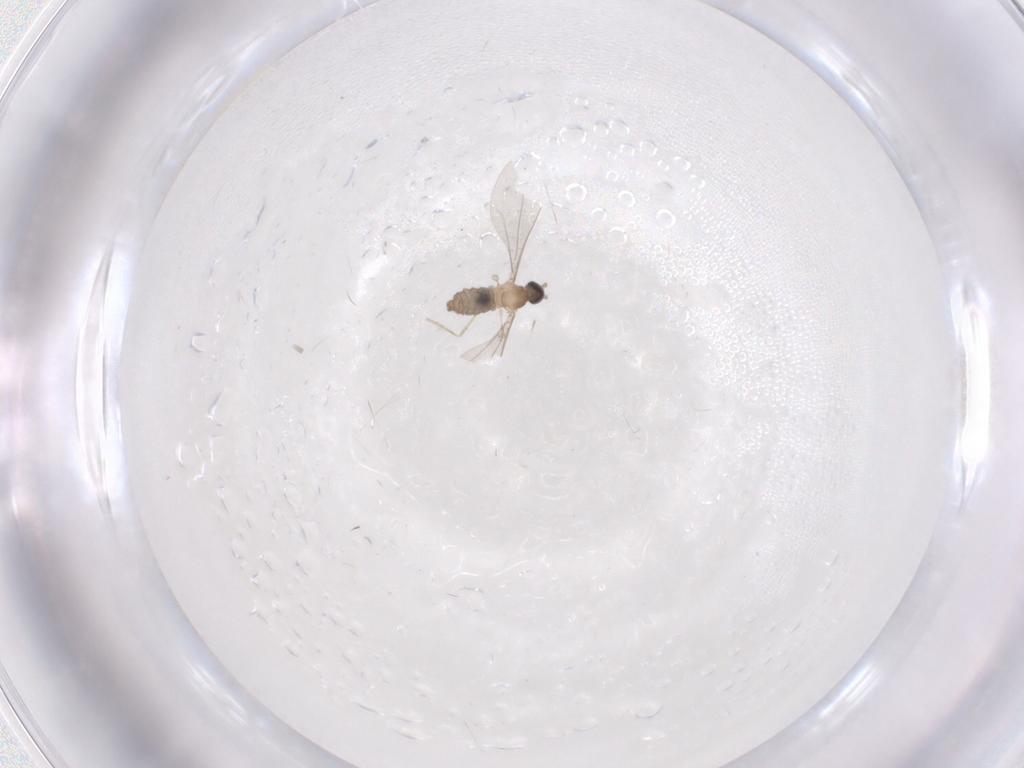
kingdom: Animalia
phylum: Arthropoda
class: Insecta
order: Diptera
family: Cecidomyiidae
